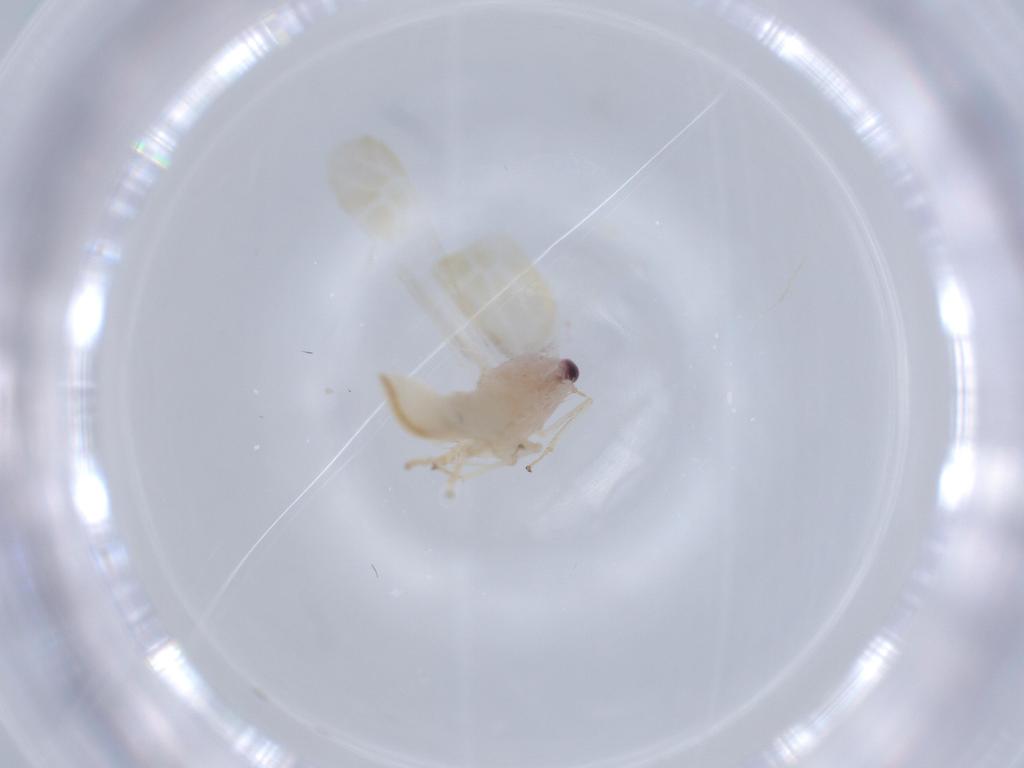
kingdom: Animalia
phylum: Arthropoda
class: Insecta
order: Hemiptera
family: Cicadellidae
